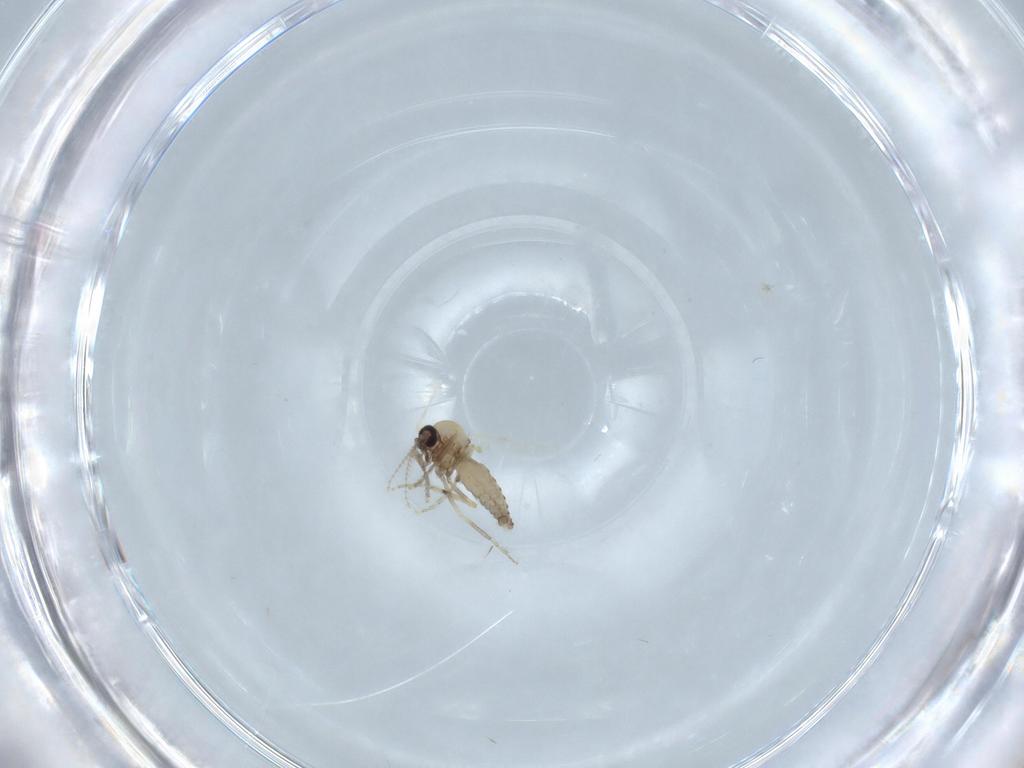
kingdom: Animalia
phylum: Arthropoda
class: Insecta
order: Diptera
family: Ceratopogonidae
